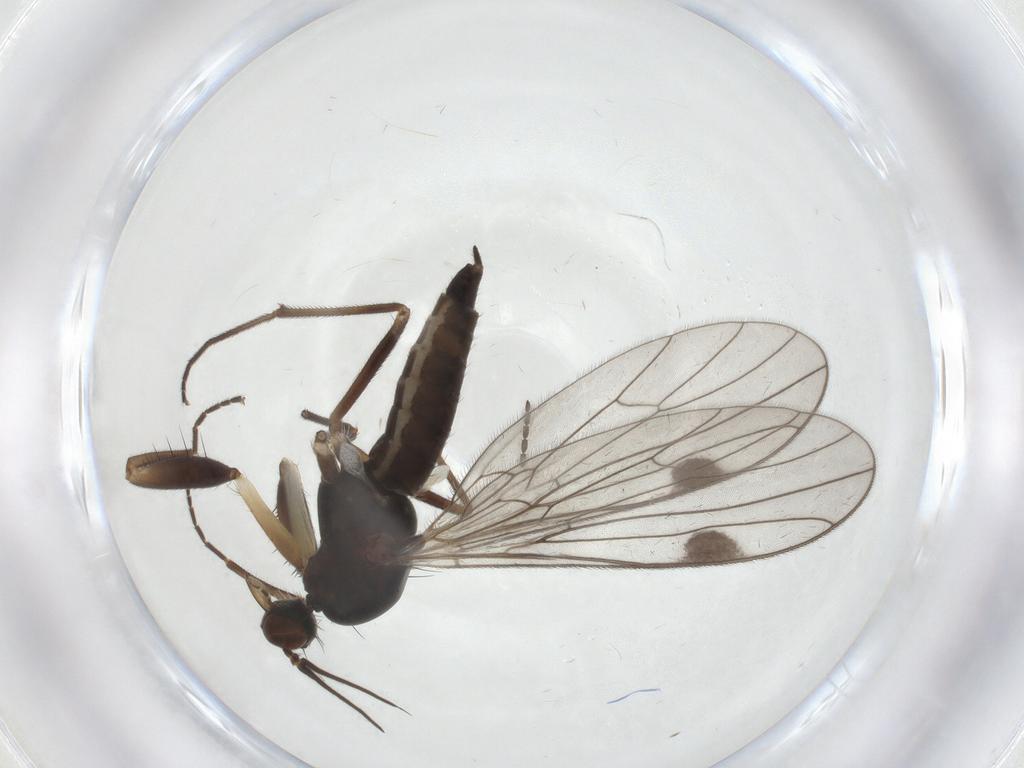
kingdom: Animalia
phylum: Arthropoda
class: Insecta
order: Diptera
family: Empididae
